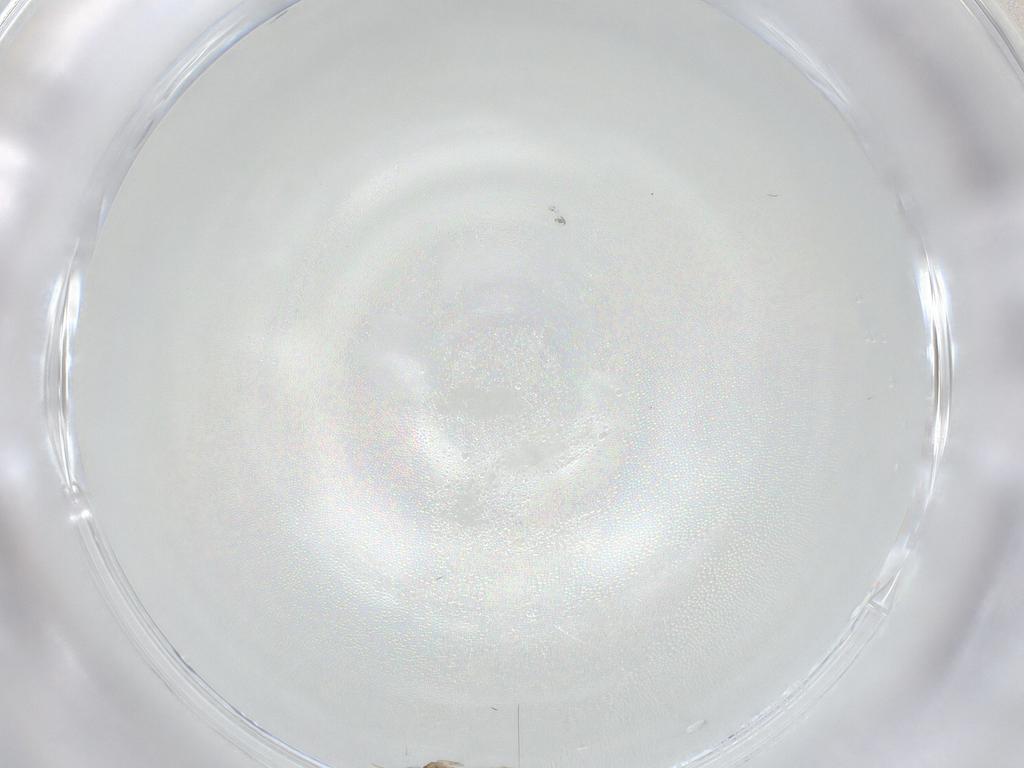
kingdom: Animalia
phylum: Arthropoda
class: Insecta
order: Diptera
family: Cecidomyiidae
